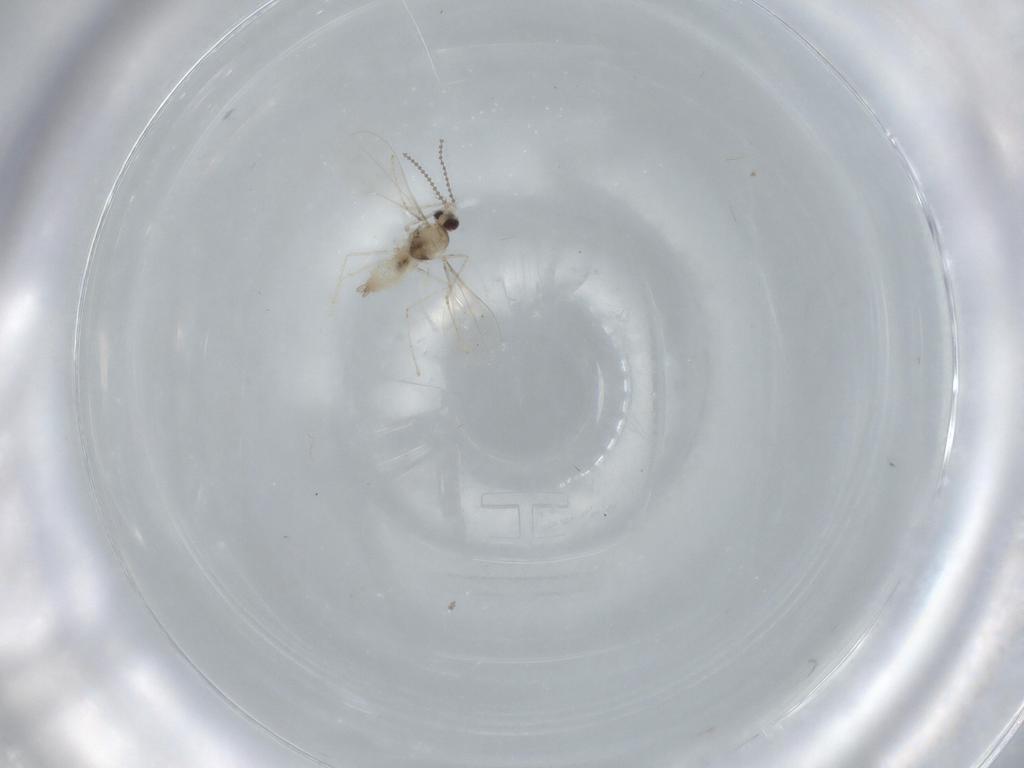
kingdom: Animalia
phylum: Arthropoda
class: Insecta
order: Diptera
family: Cecidomyiidae
